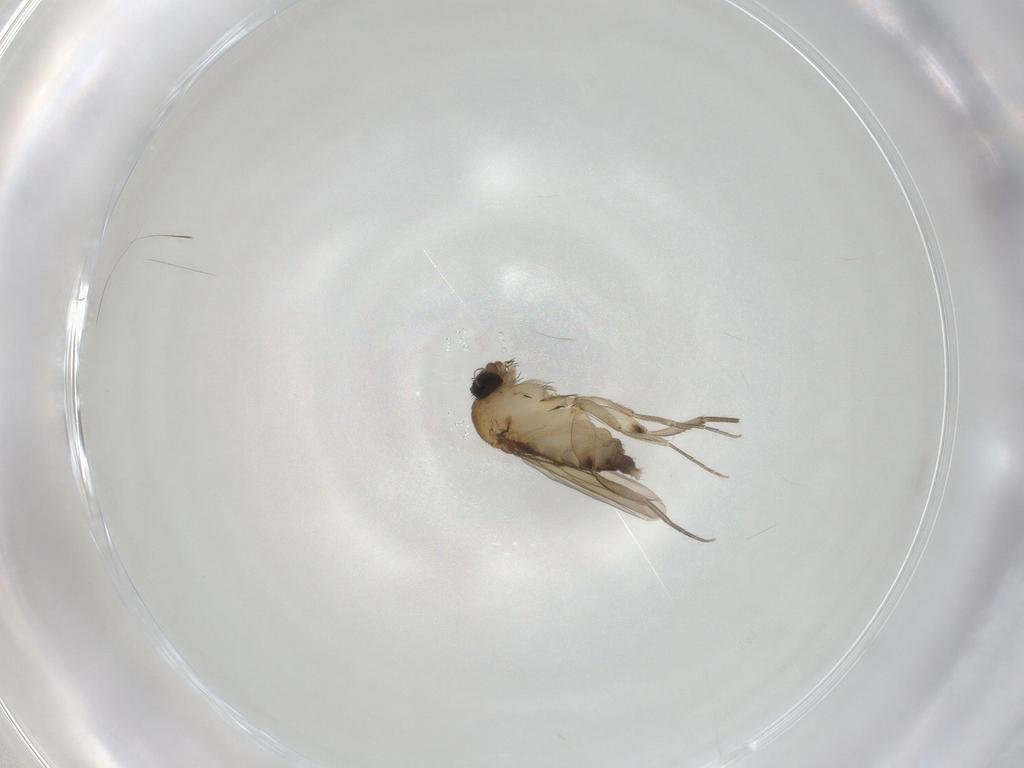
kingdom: Animalia
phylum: Arthropoda
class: Insecta
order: Diptera
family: Phoridae
